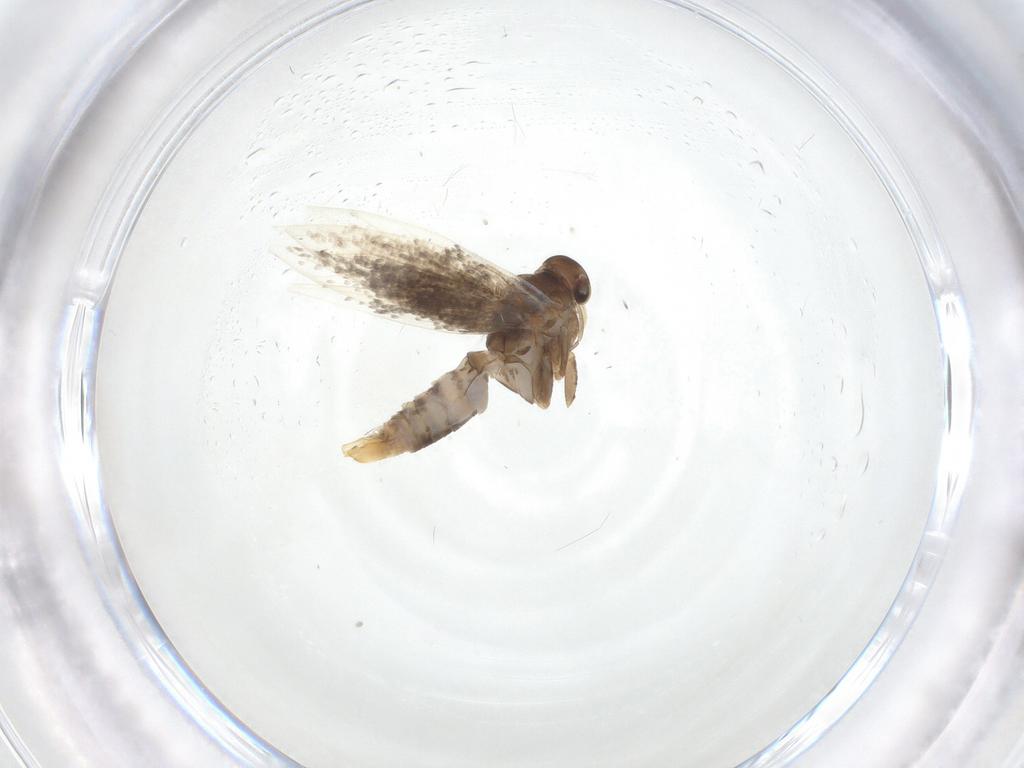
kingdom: Animalia
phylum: Arthropoda
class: Insecta
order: Lepidoptera
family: Elachistidae
